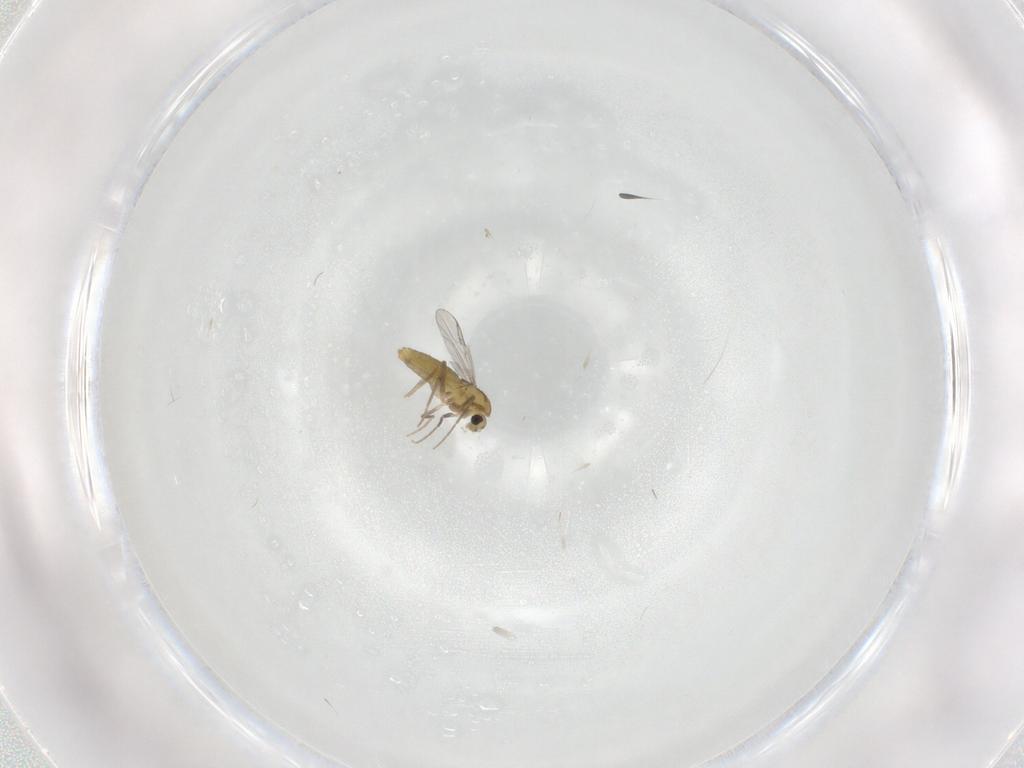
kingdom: Animalia
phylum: Arthropoda
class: Insecta
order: Diptera
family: Chironomidae
